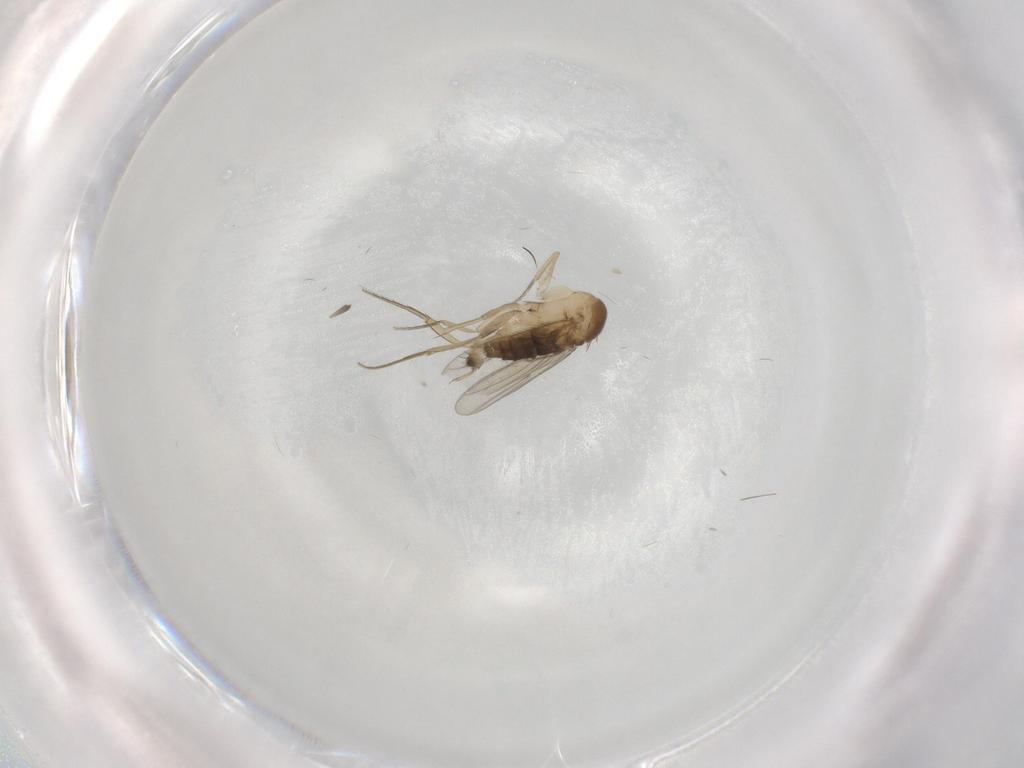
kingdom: Animalia
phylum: Arthropoda
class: Insecta
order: Diptera
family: Phoridae
